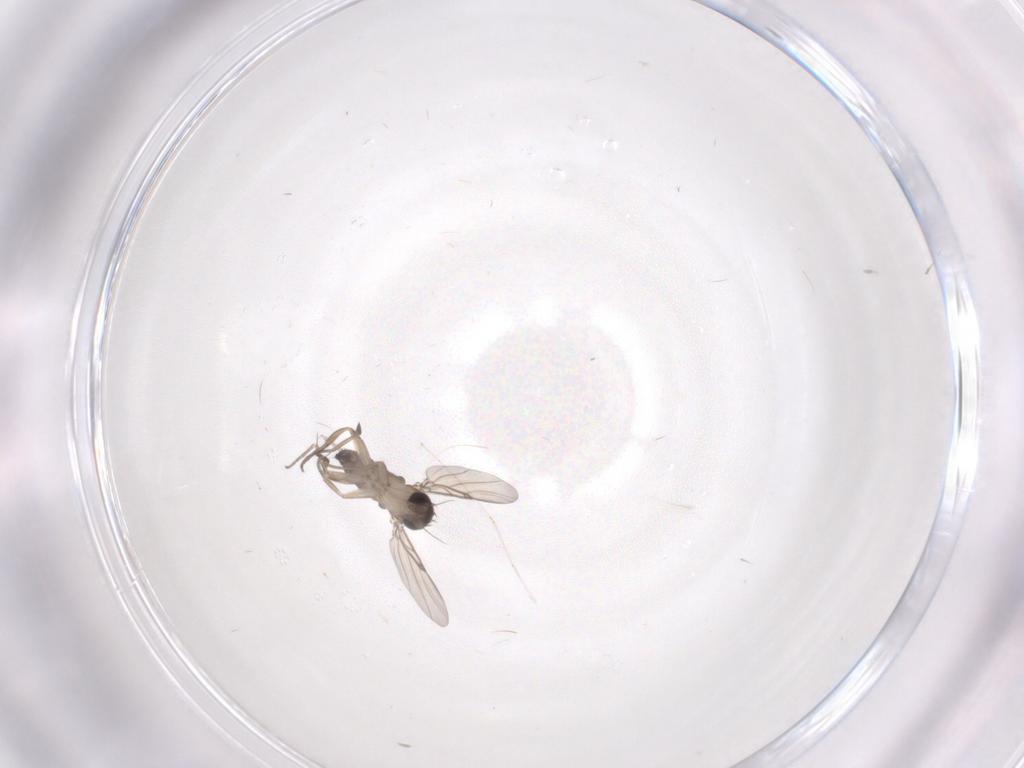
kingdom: Animalia
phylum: Arthropoda
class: Insecta
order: Diptera
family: Phoridae
